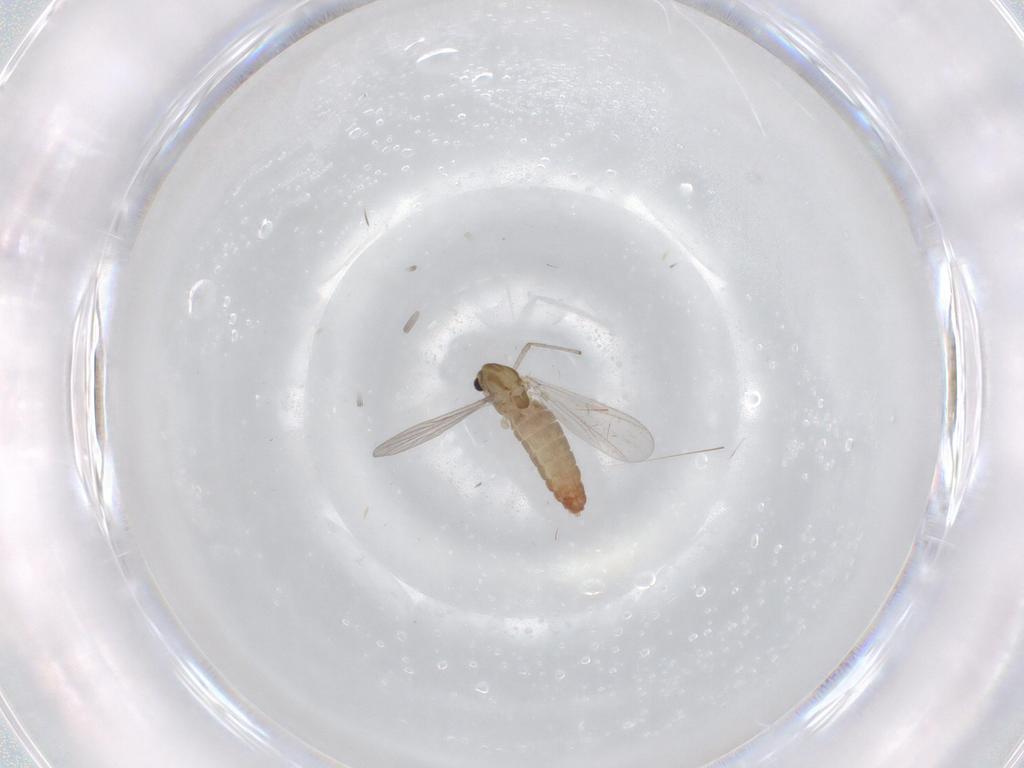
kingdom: Animalia
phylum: Arthropoda
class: Insecta
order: Diptera
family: Chironomidae
